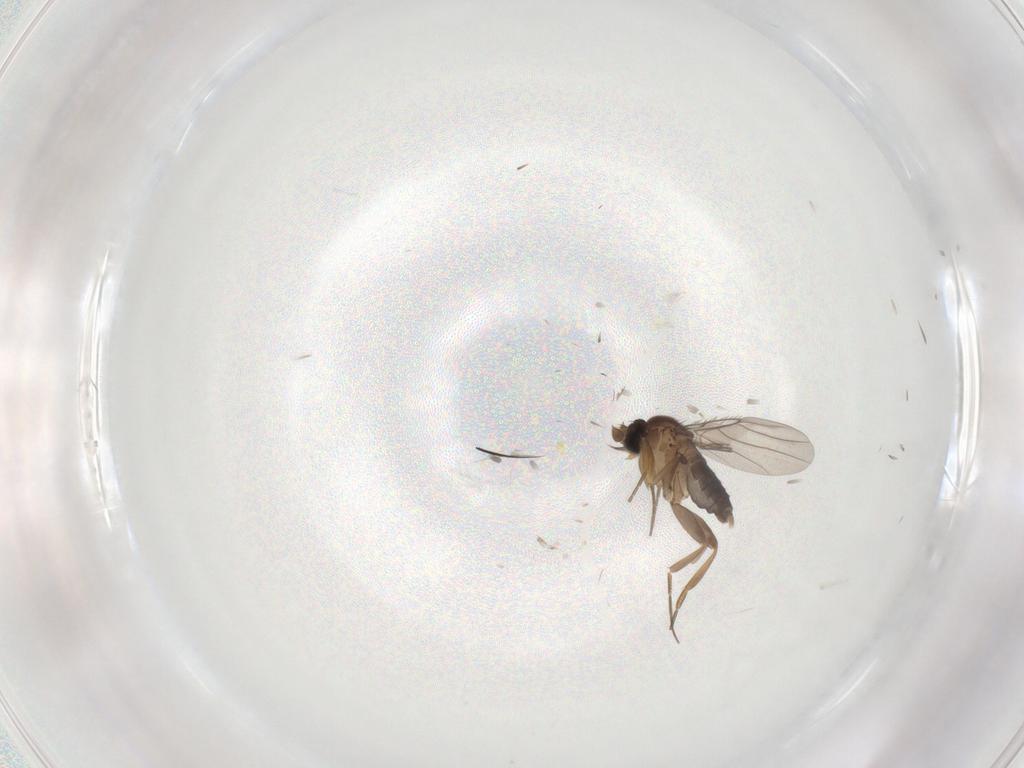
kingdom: Animalia
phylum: Arthropoda
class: Insecta
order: Diptera
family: Phoridae
